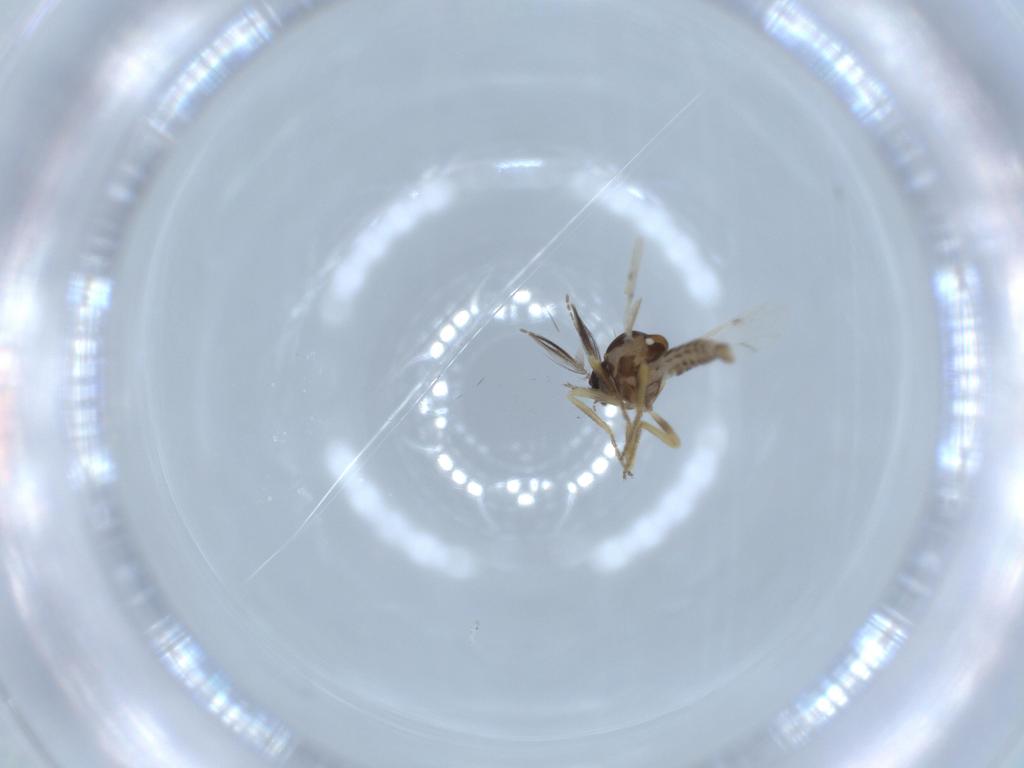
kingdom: Animalia
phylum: Arthropoda
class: Insecta
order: Diptera
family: Ceratopogonidae
